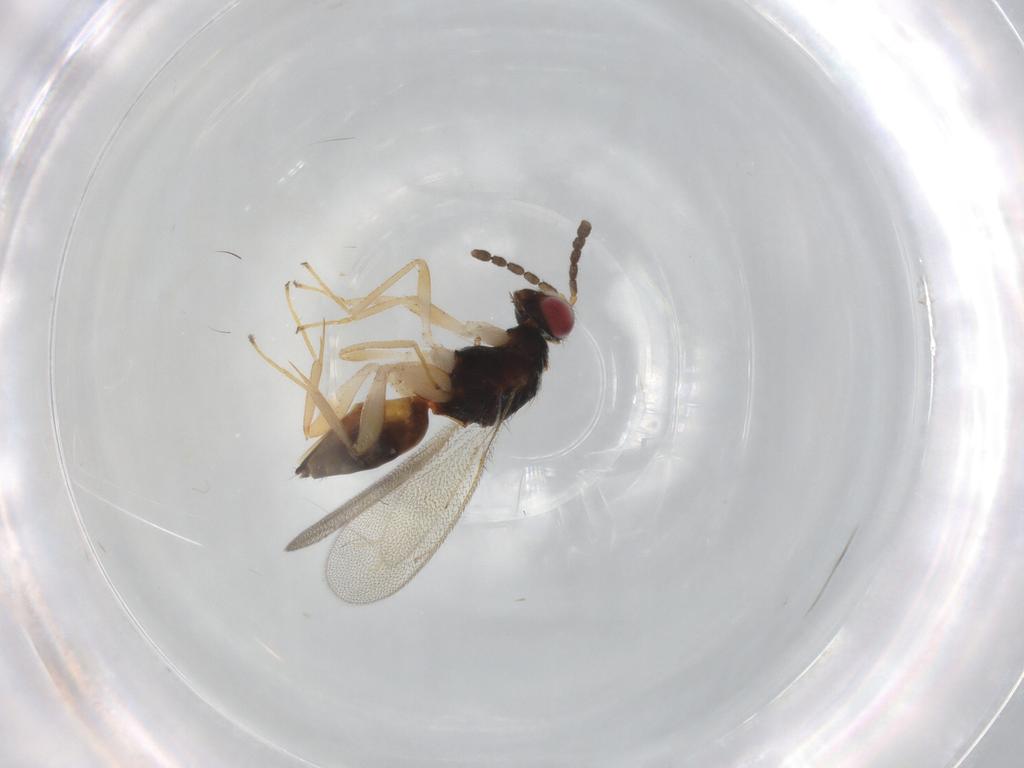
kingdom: Animalia
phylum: Arthropoda
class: Insecta
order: Hymenoptera
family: Eulophidae
